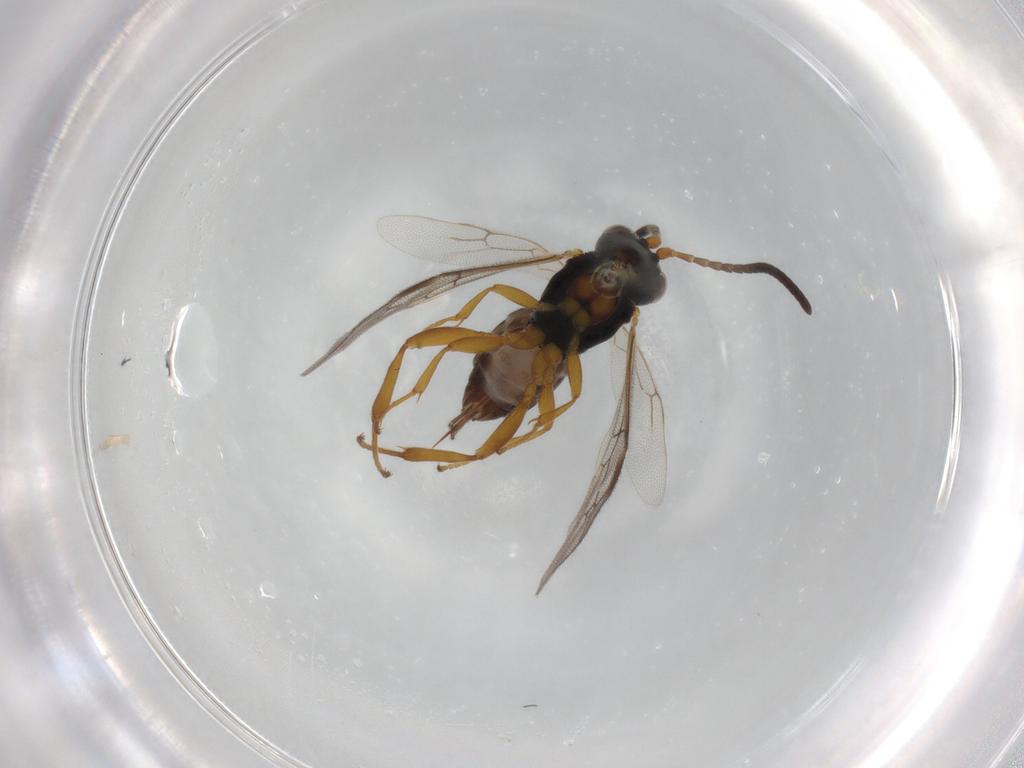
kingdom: Animalia
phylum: Arthropoda
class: Insecta
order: Hymenoptera
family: Ichneumonidae
